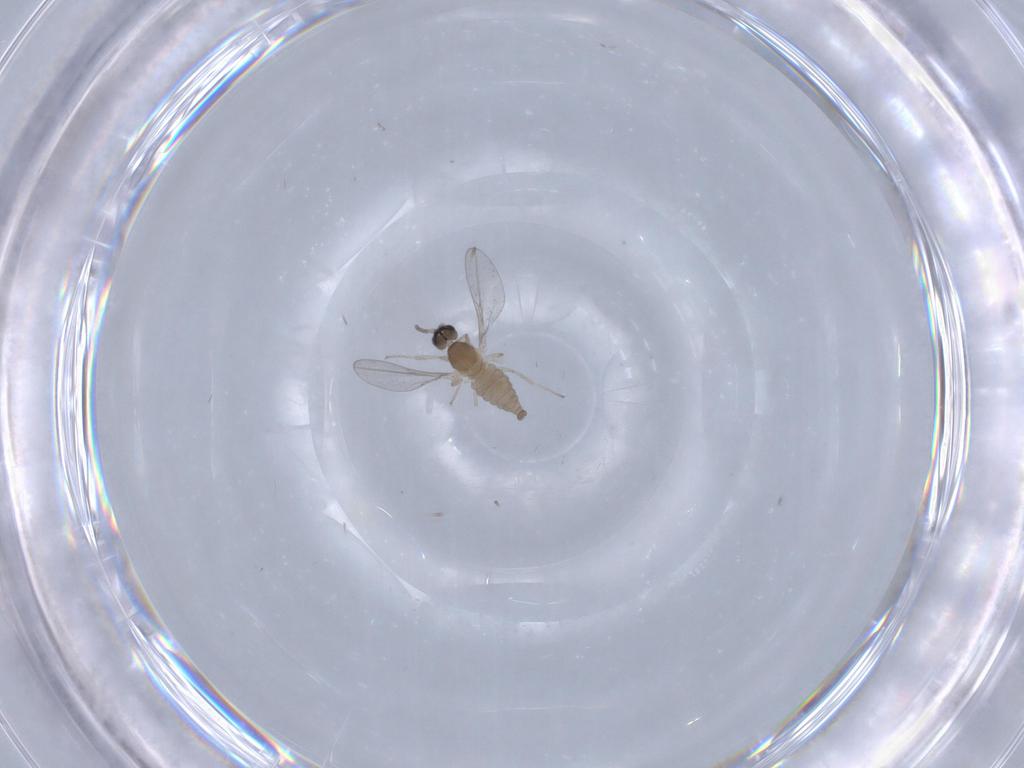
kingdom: Animalia
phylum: Arthropoda
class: Insecta
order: Diptera
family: Cecidomyiidae
